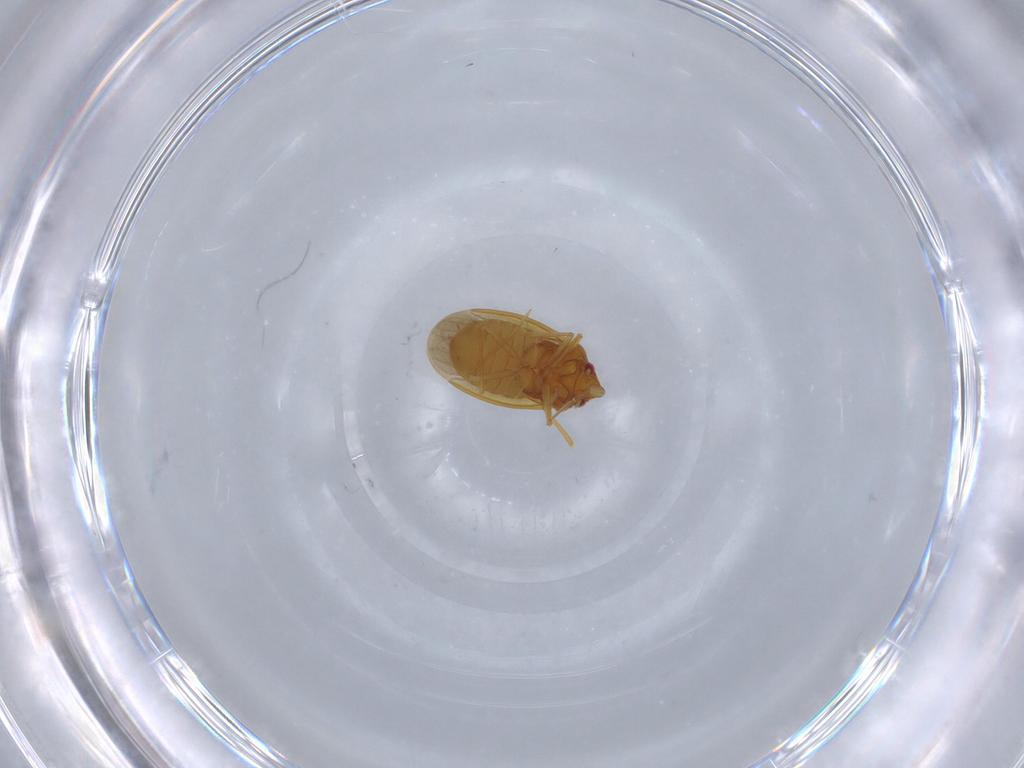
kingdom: Animalia
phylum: Arthropoda
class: Insecta
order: Hemiptera
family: Schizopteridae
